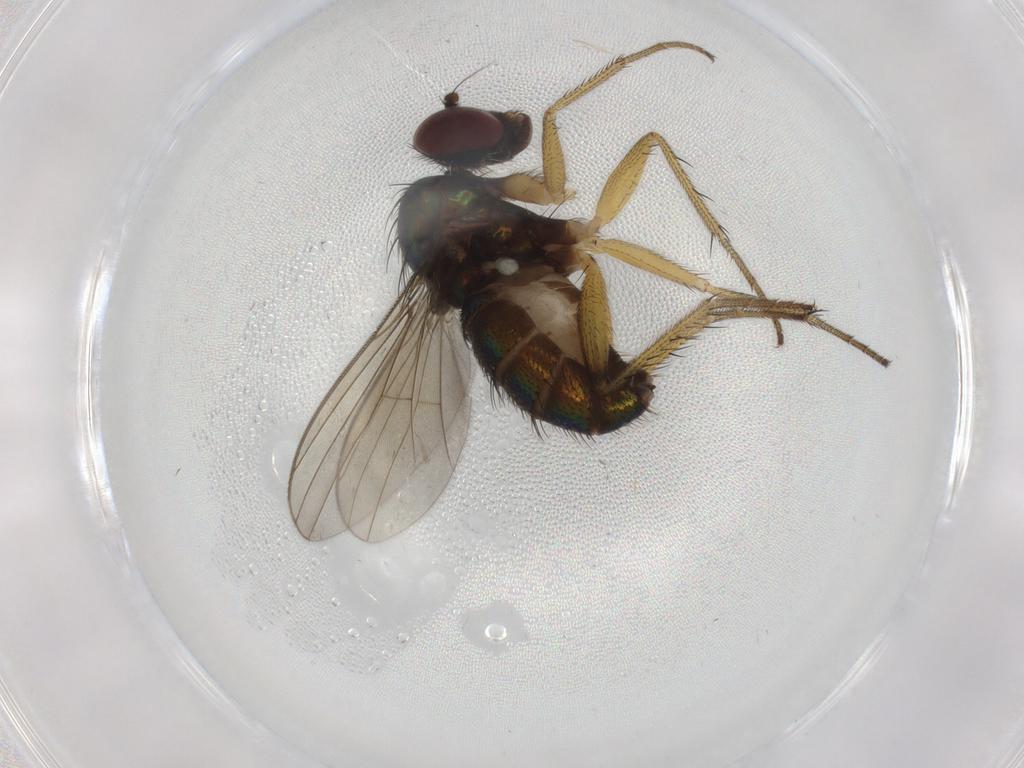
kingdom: Animalia
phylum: Arthropoda
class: Insecta
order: Diptera
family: Dolichopodidae
